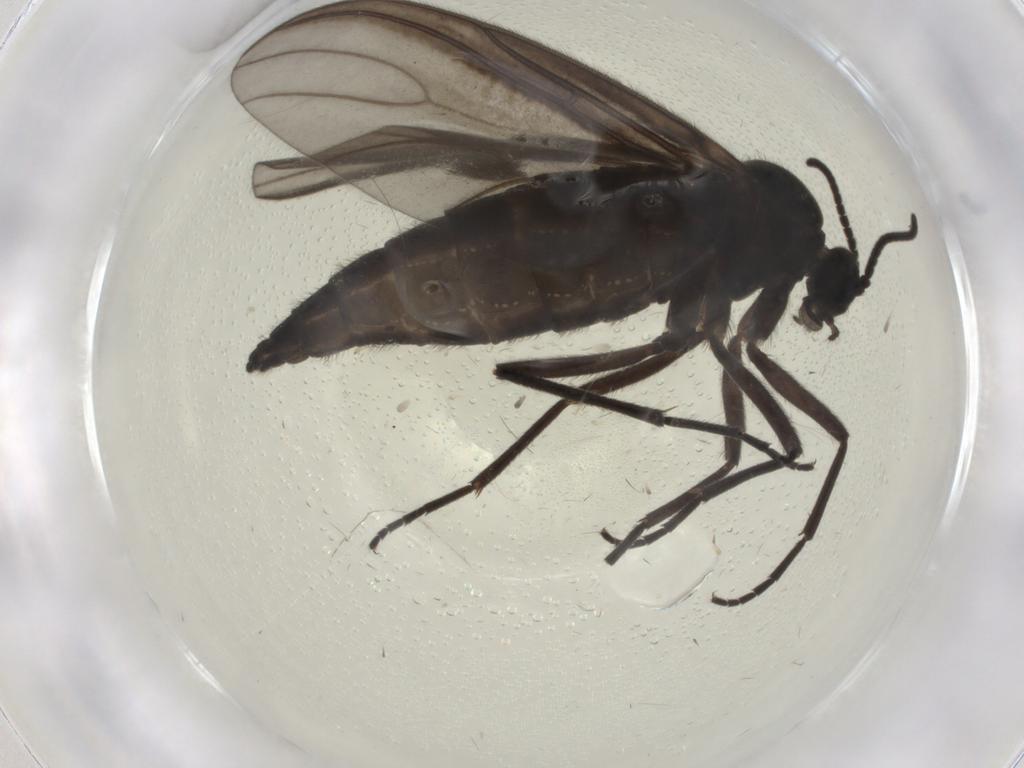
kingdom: Animalia
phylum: Arthropoda
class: Insecta
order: Diptera
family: Sciaridae
